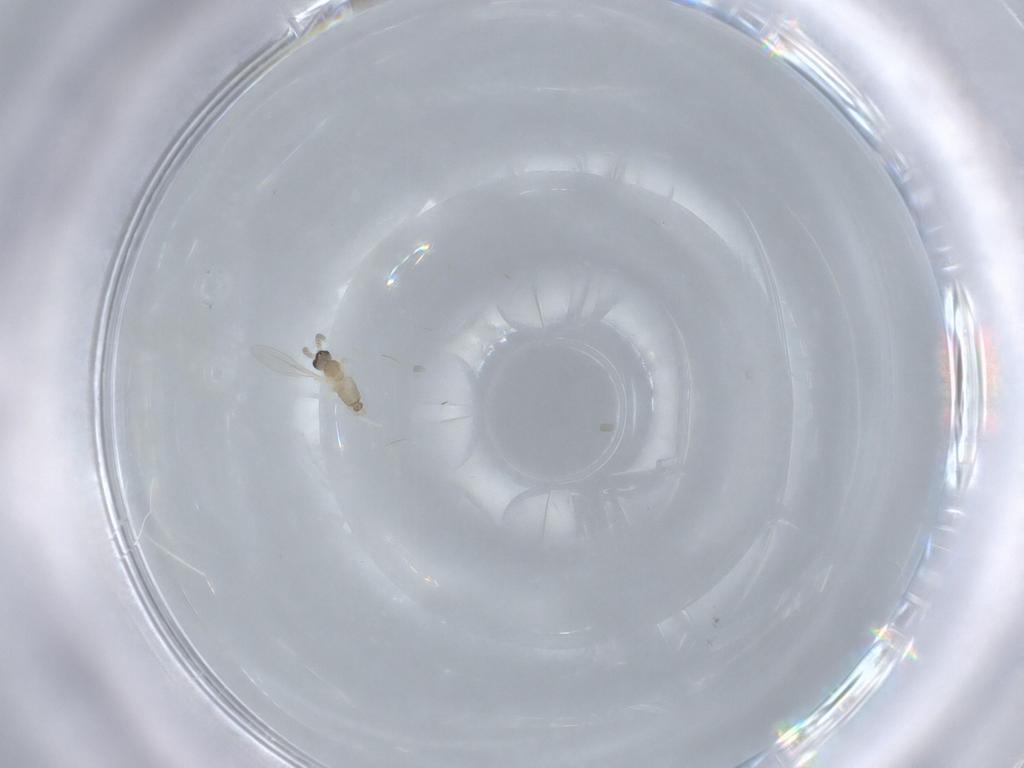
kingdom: Animalia
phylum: Arthropoda
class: Insecta
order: Diptera
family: Cecidomyiidae
